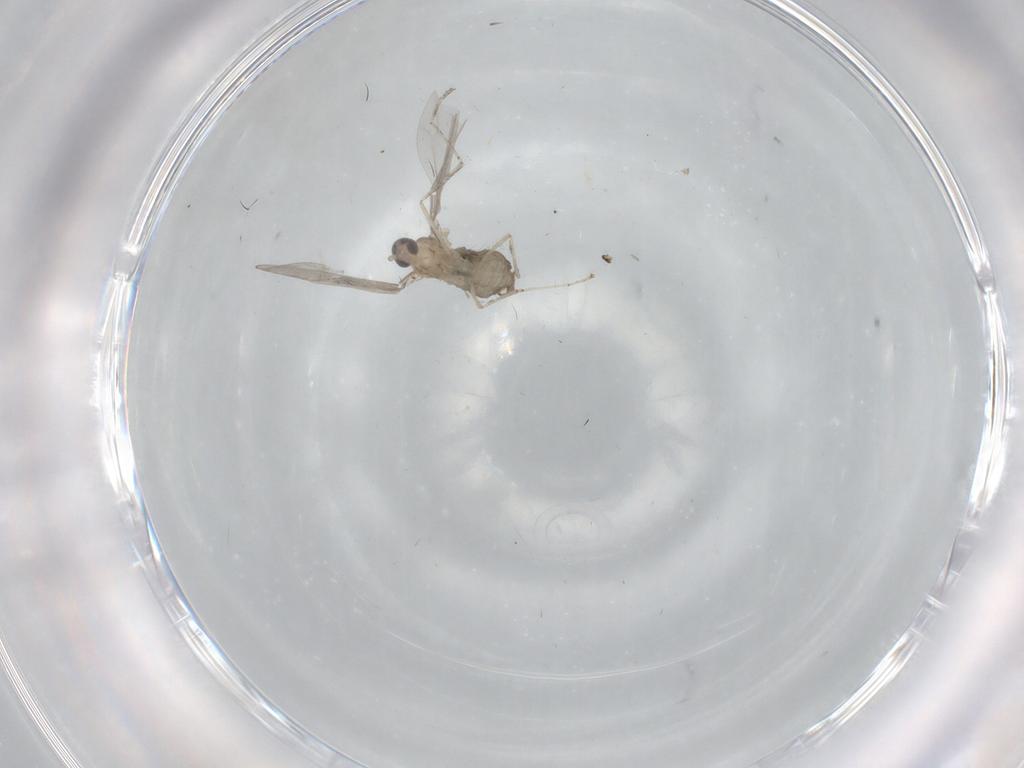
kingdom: Animalia
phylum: Arthropoda
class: Insecta
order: Diptera
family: Cecidomyiidae
